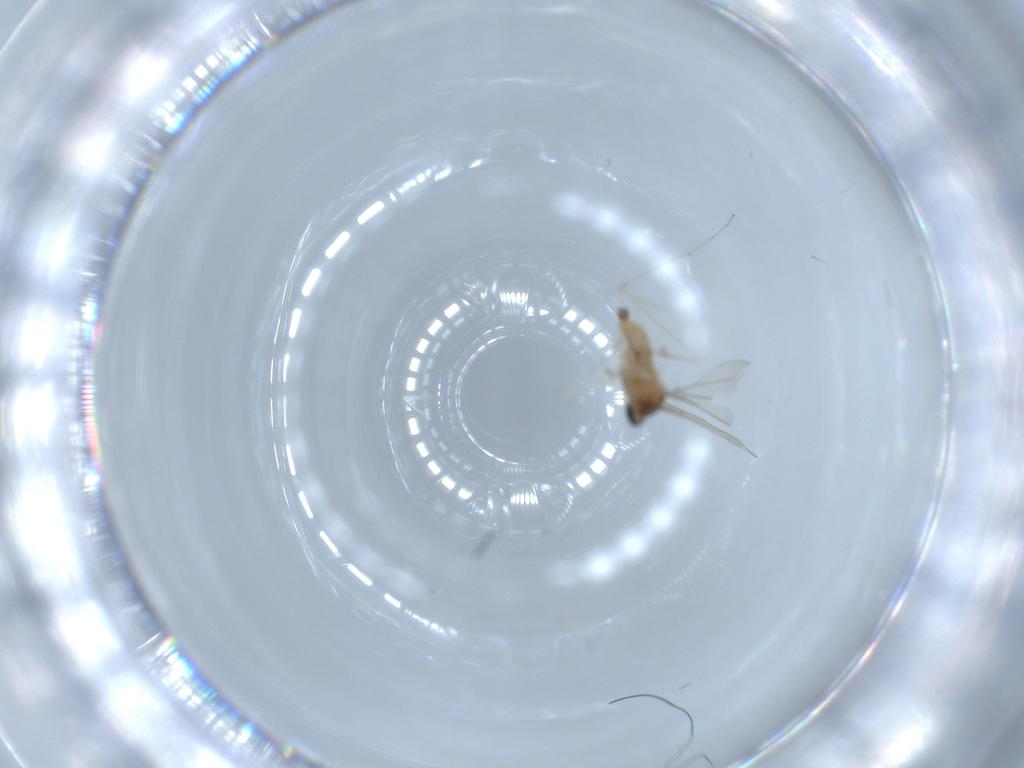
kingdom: Animalia
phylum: Arthropoda
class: Insecta
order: Diptera
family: Cecidomyiidae
